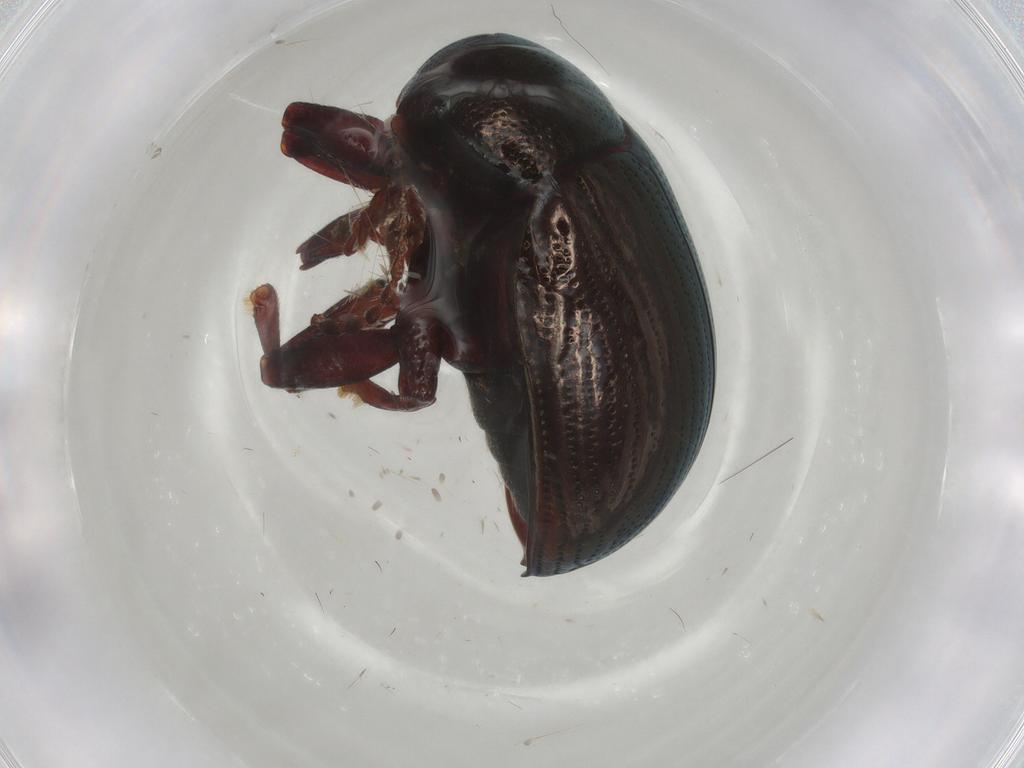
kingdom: Animalia
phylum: Arthropoda
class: Insecta
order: Coleoptera
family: Chrysomelidae
